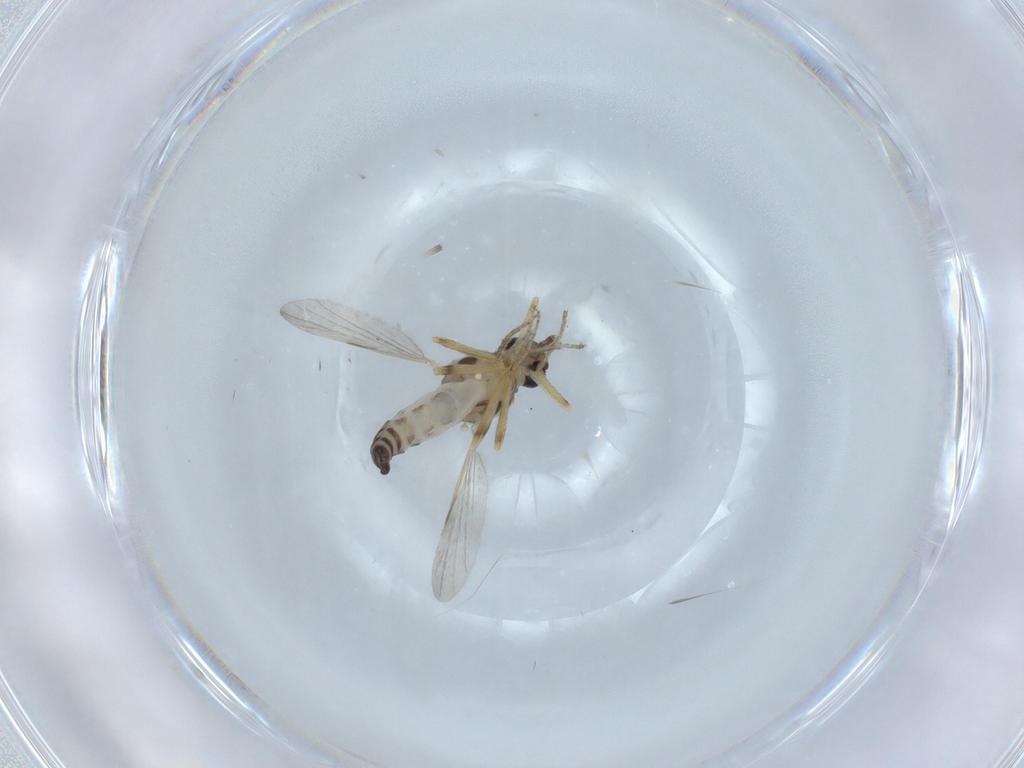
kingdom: Animalia
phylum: Arthropoda
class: Insecta
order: Diptera
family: Ceratopogonidae
